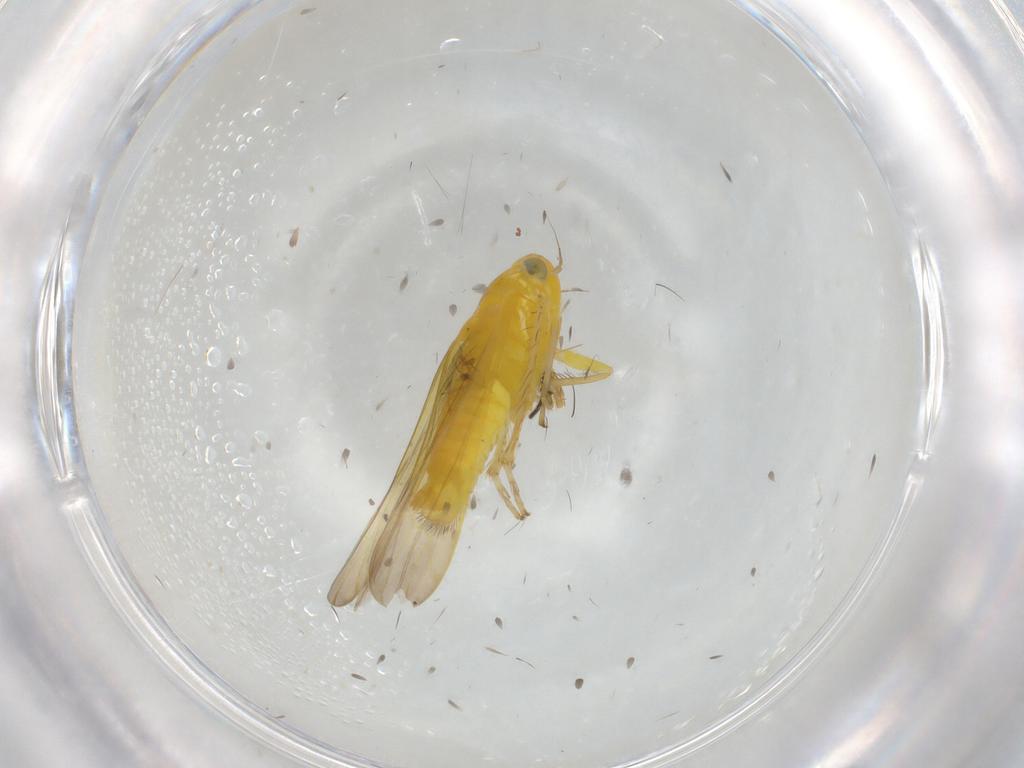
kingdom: Animalia
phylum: Arthropoda
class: Insecta
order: Hemiptera
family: Cicadellidae
